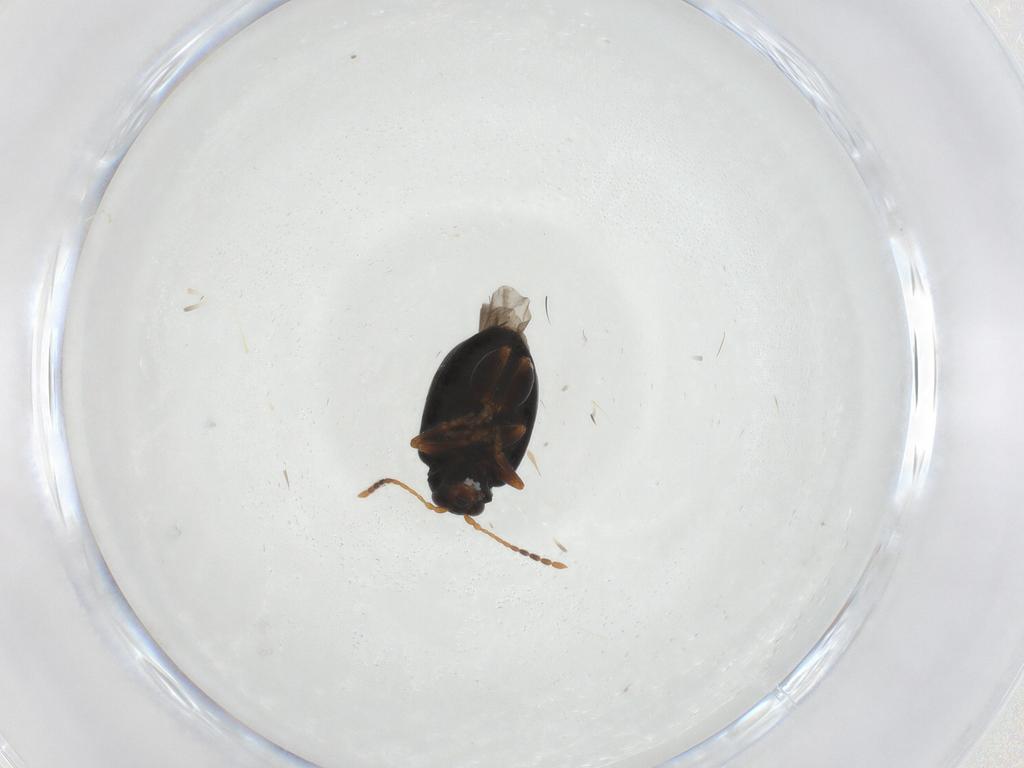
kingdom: Animalia
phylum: Arthropoda
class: Insecta
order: Coleoptera
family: Chrysomelidae
